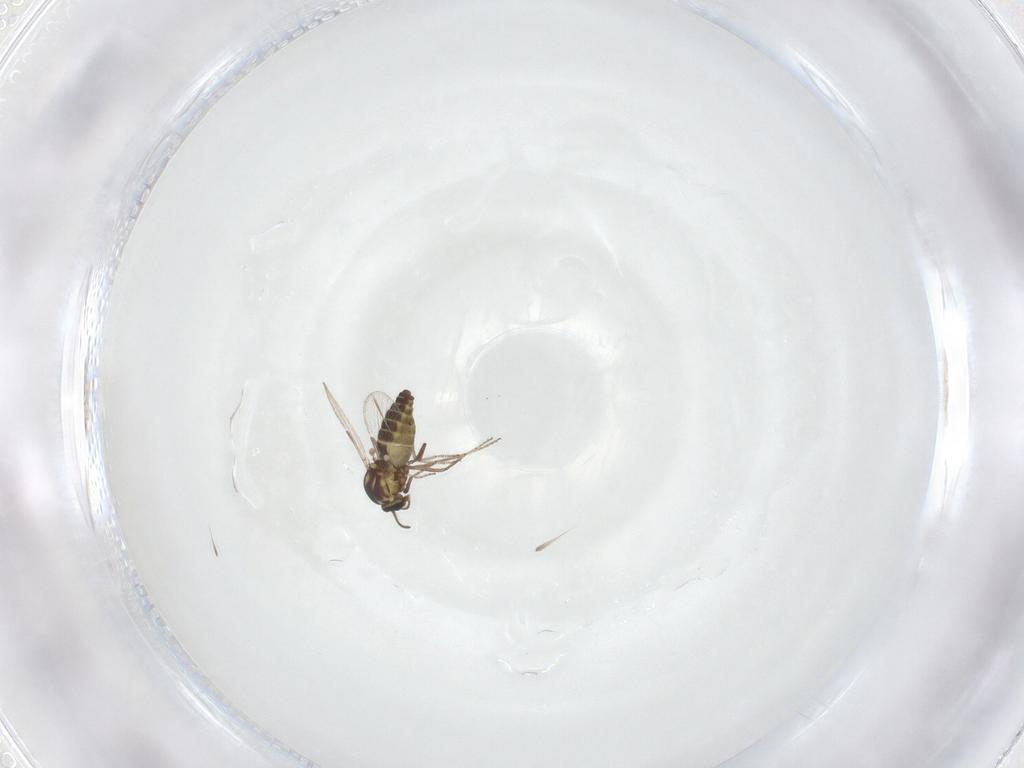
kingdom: Animalia
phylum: Arthropoda
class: Insecta
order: Diptera
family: Ceratopogonidae
